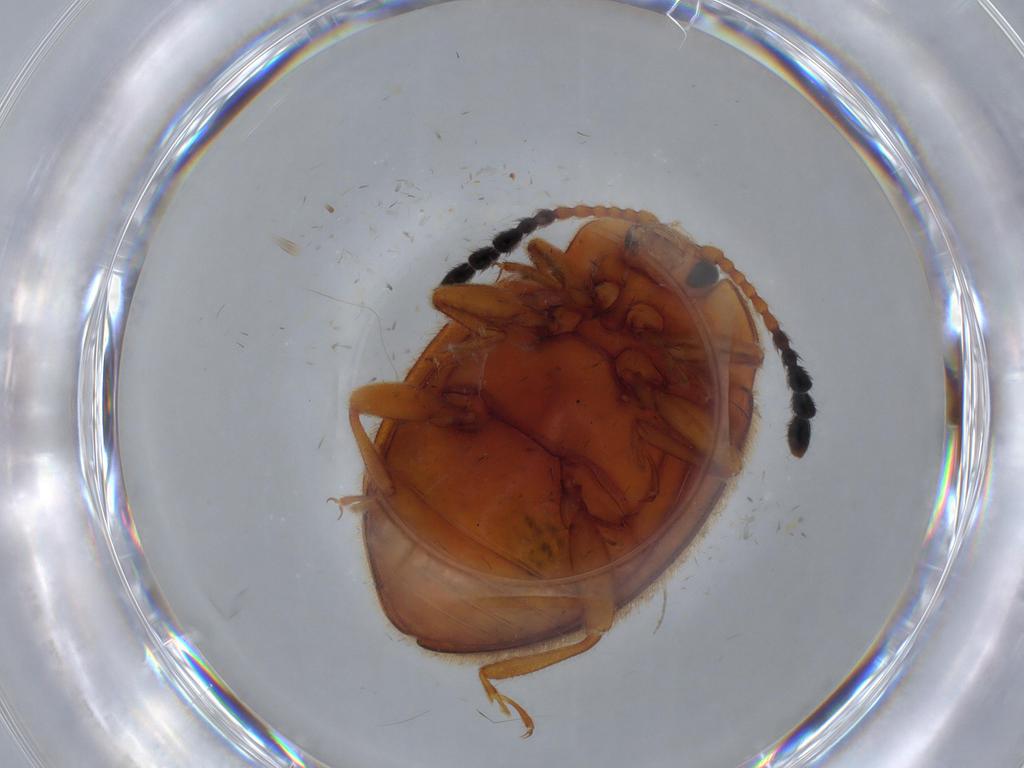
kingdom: Animalia
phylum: Arthropoda
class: Insecta
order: Coleoptera
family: Endomychidae
